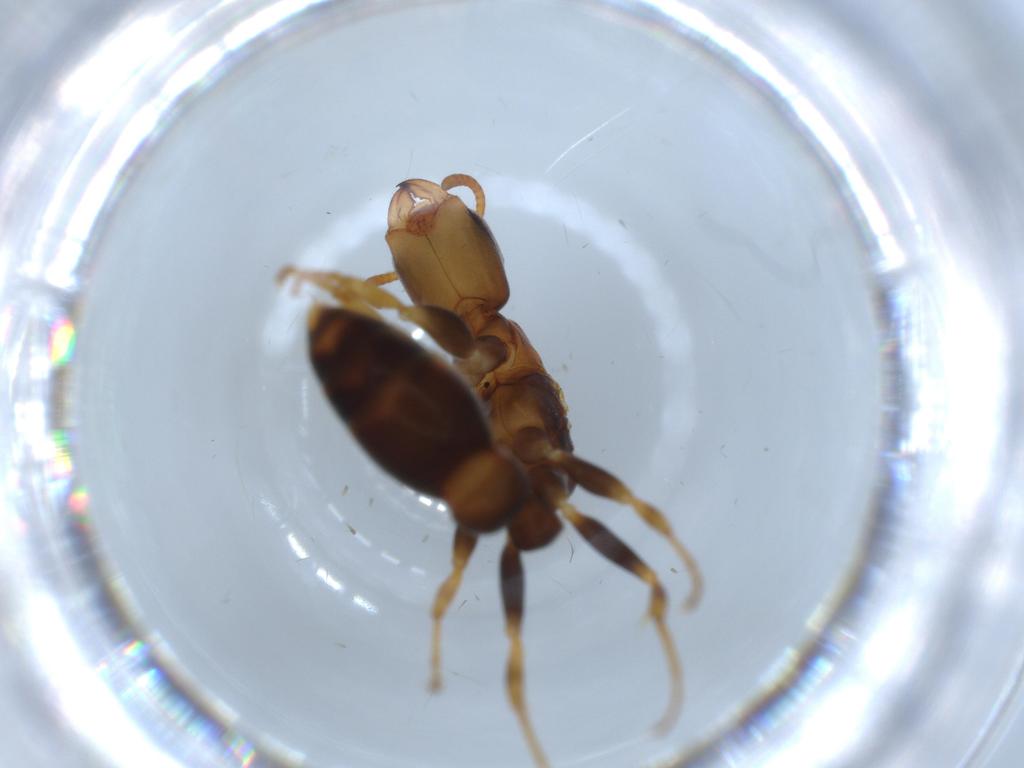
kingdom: Animalia
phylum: Arthropoda
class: Insecta
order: Hymenoptera
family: Formicidae
